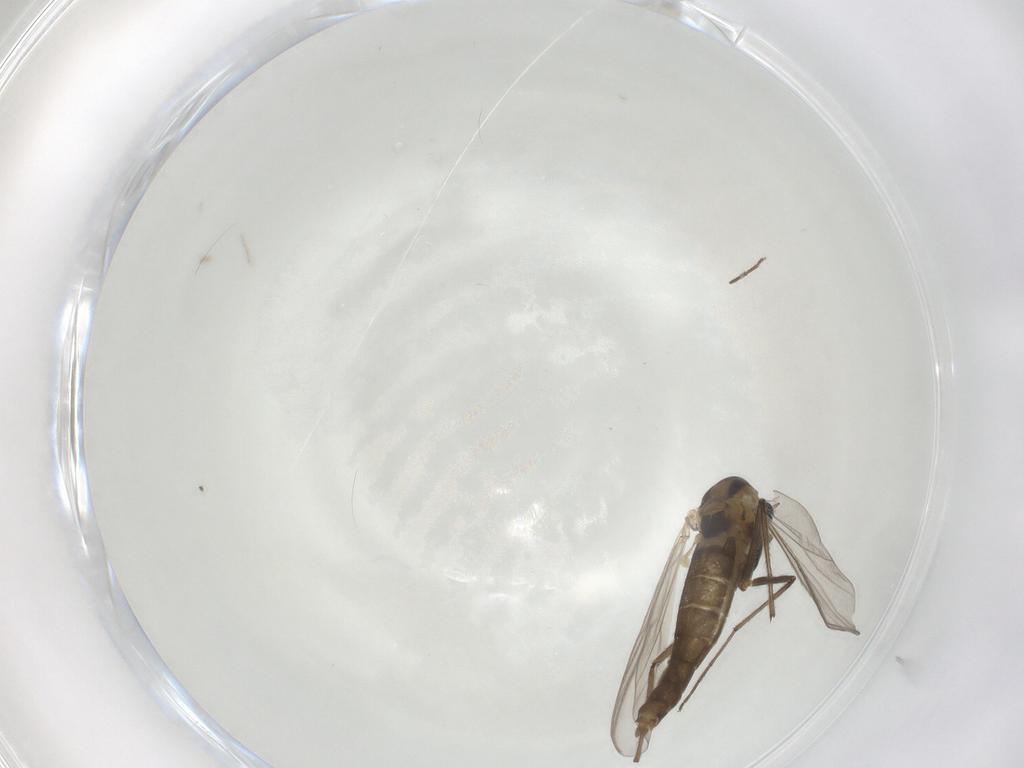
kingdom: Animalia
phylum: Arthropoda
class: Insecta
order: Diptera
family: Chironomidae
